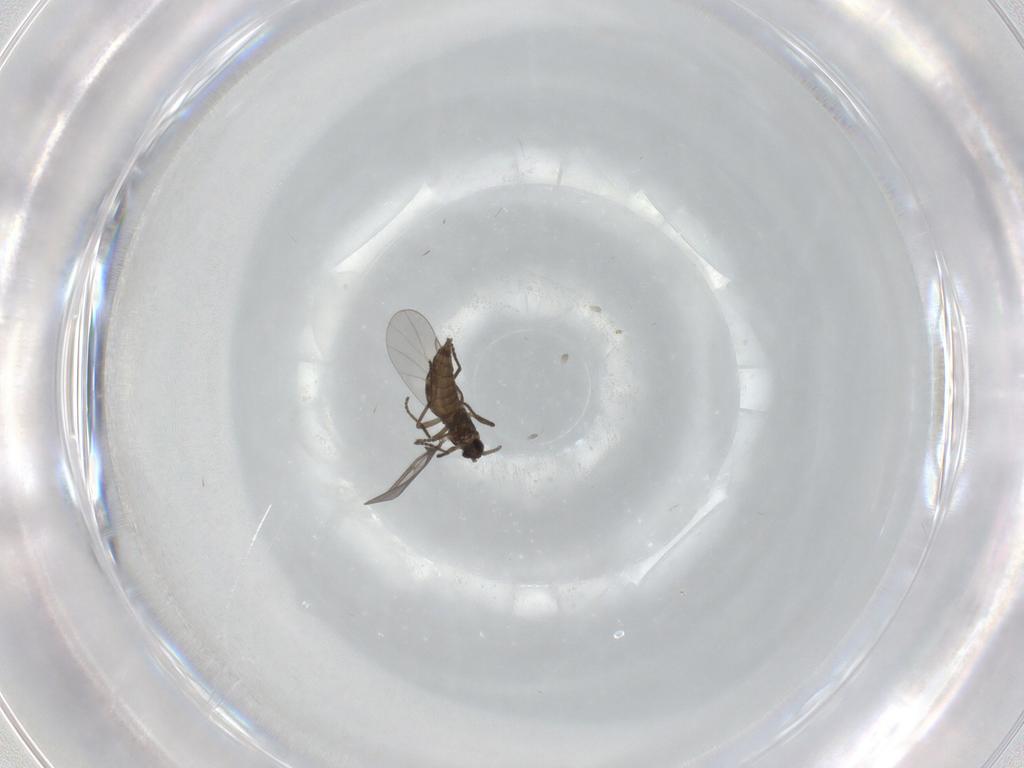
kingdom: Animalia
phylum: Arthropoda
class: Insecta
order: Diptera
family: Cecidomyiidae
